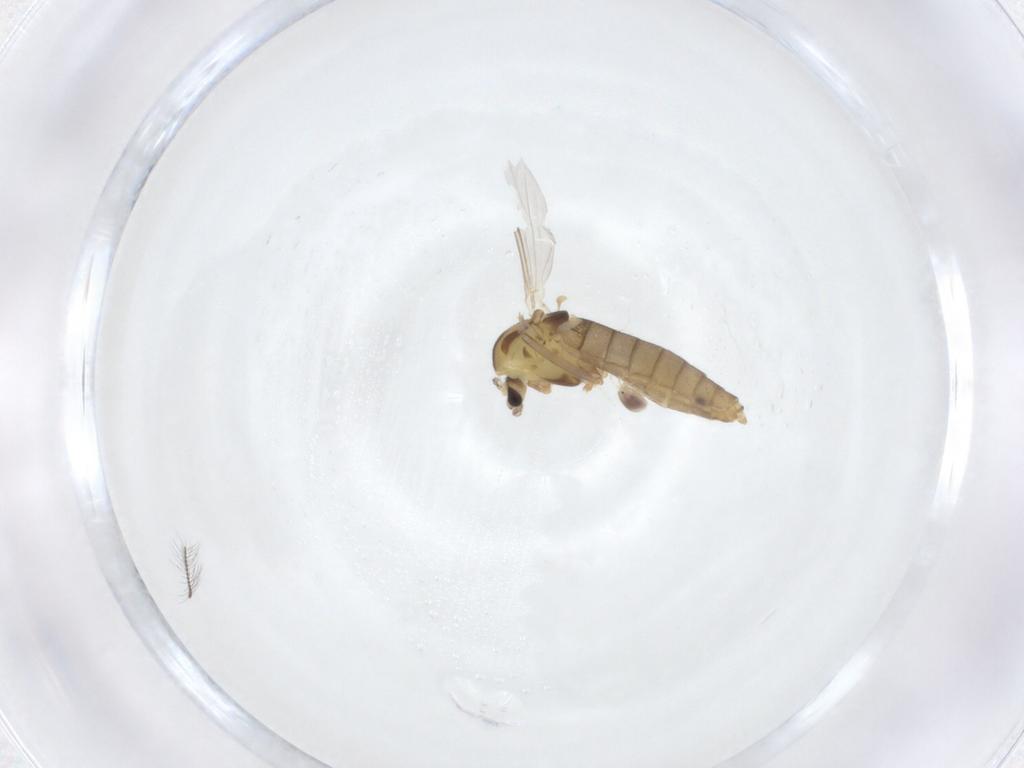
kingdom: Animalia
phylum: Arthropoda
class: Insecta
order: Diptera
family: Chironomidae
